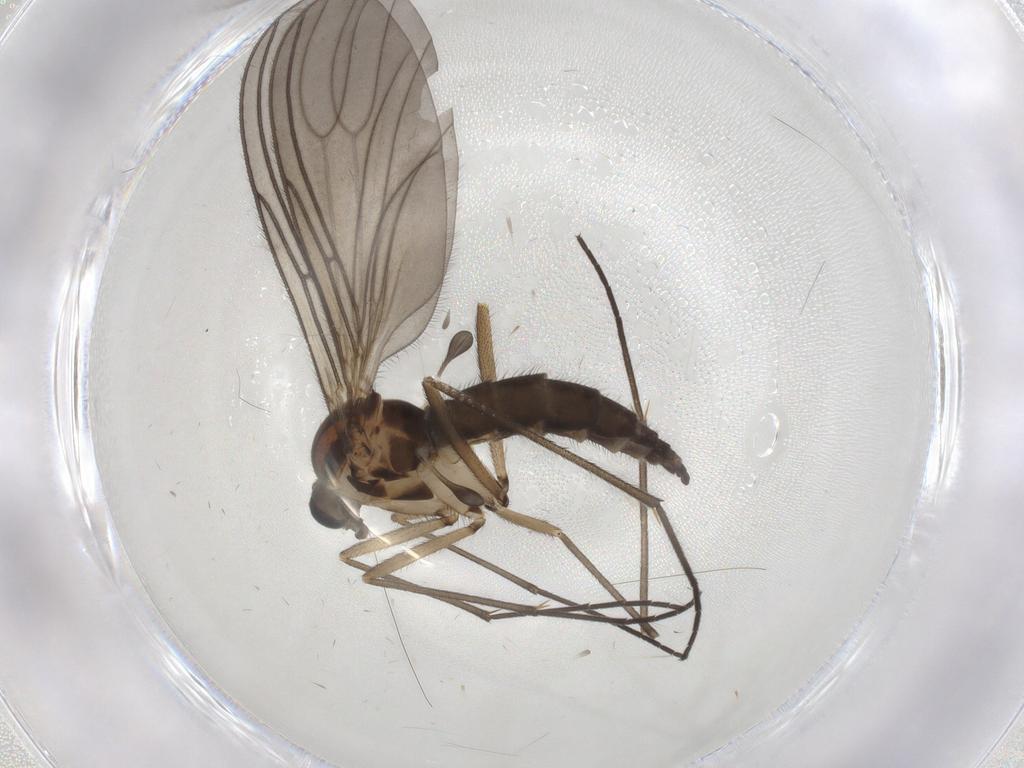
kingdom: Animalia
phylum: Arthropoda
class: Insecta
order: Diptera
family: Sciaridae
